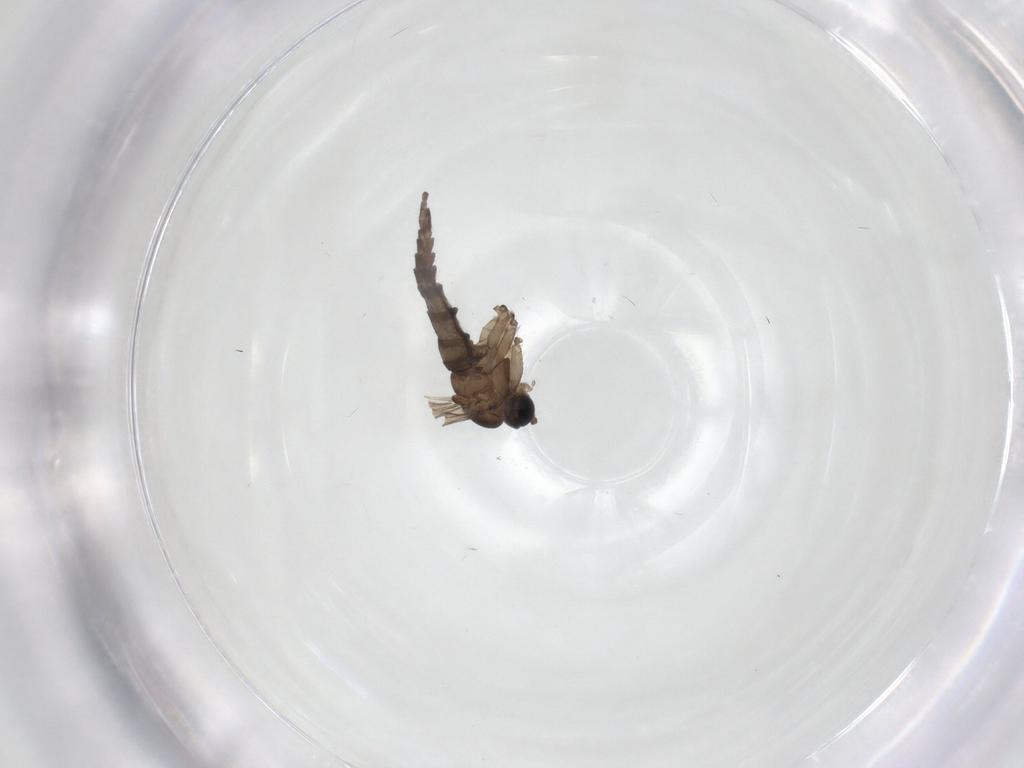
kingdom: Animalia
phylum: Arthropoda
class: Insecta
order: Diptera
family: Sciaridae
